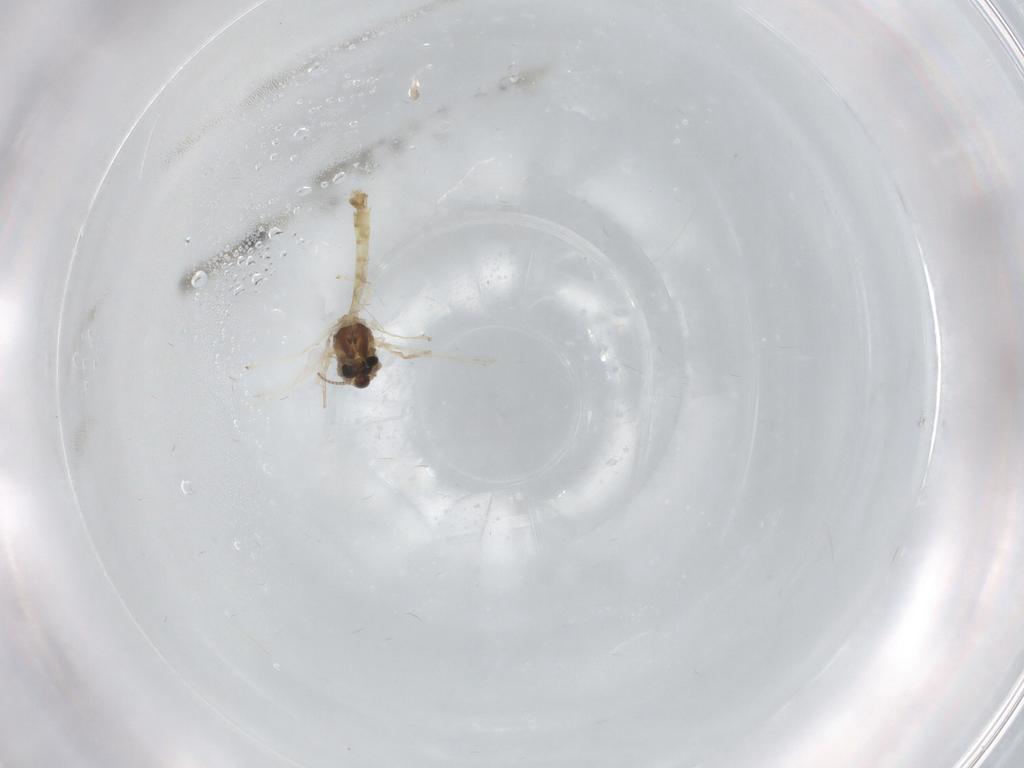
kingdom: Animalia
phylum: Arthropoda
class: Insecta
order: Diptera
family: Chironomidae
